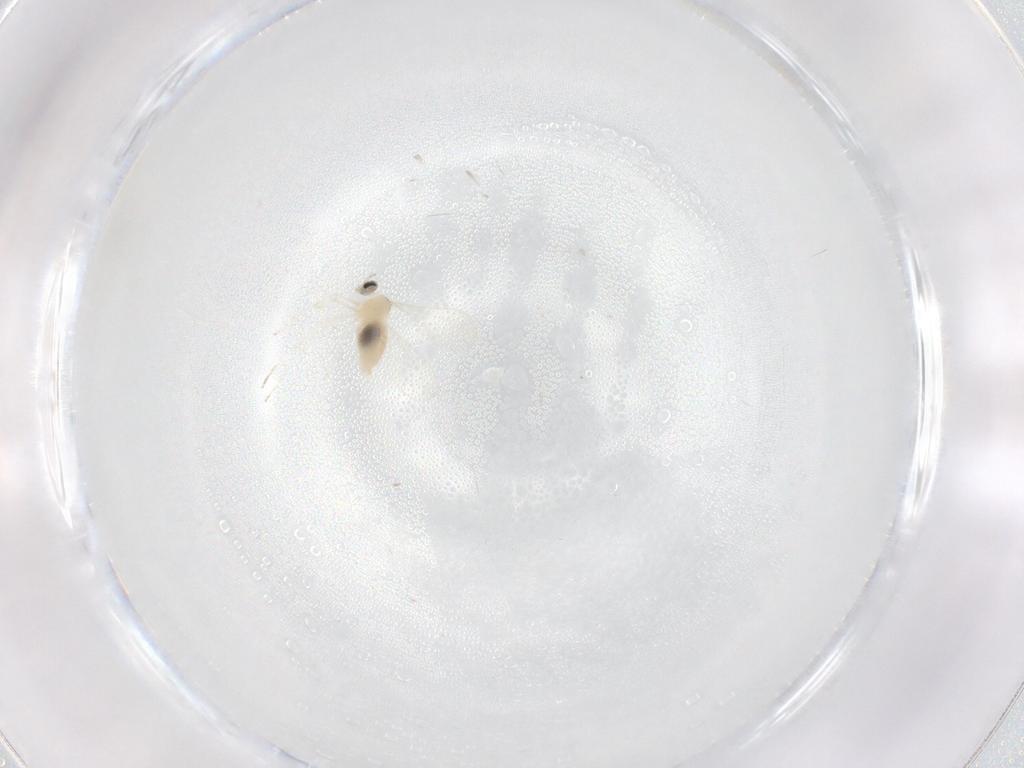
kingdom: Animalia
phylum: Arthropoda
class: Insecta
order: Diptera
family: Cecidomyiidae
